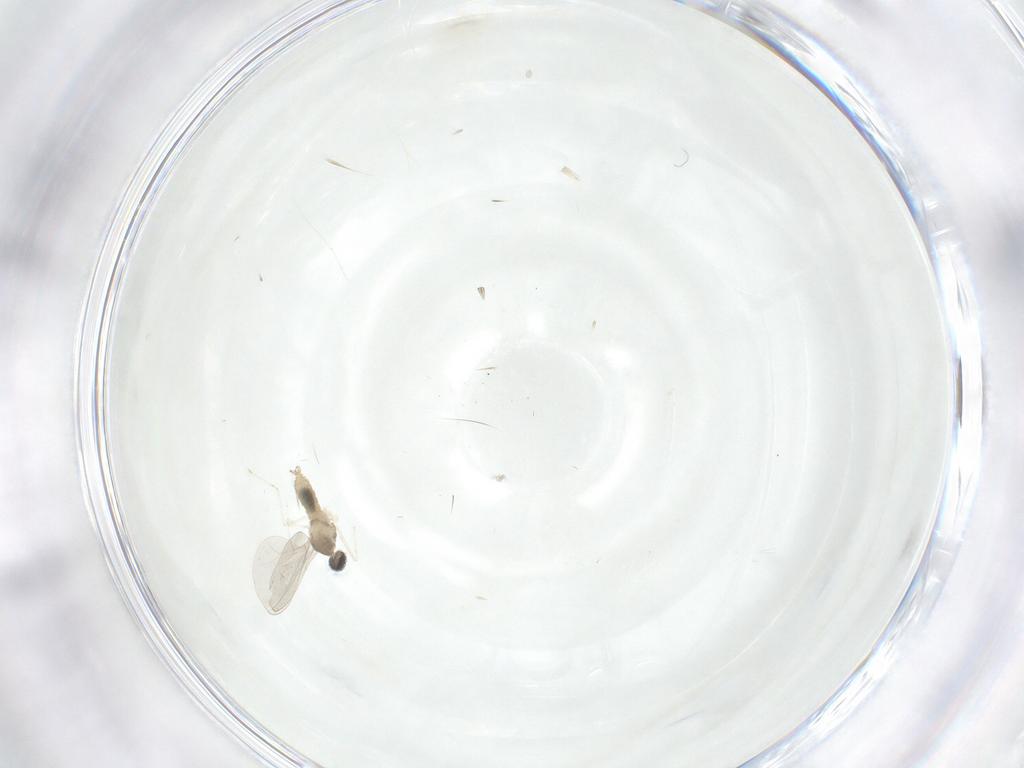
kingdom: Animalia
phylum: Arthropoda
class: Insecta
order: Diptera
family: Cecidomyiidae
